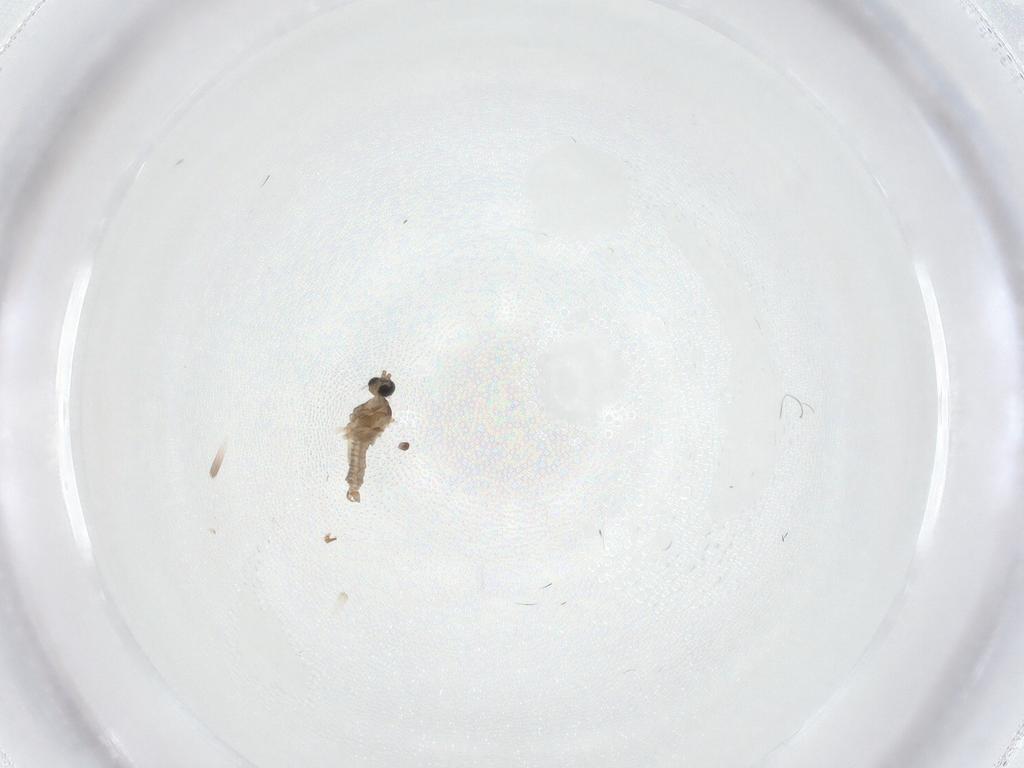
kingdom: Animalia
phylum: Arthropoda
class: Insecta
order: Diptera
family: Cecidomyiidae
